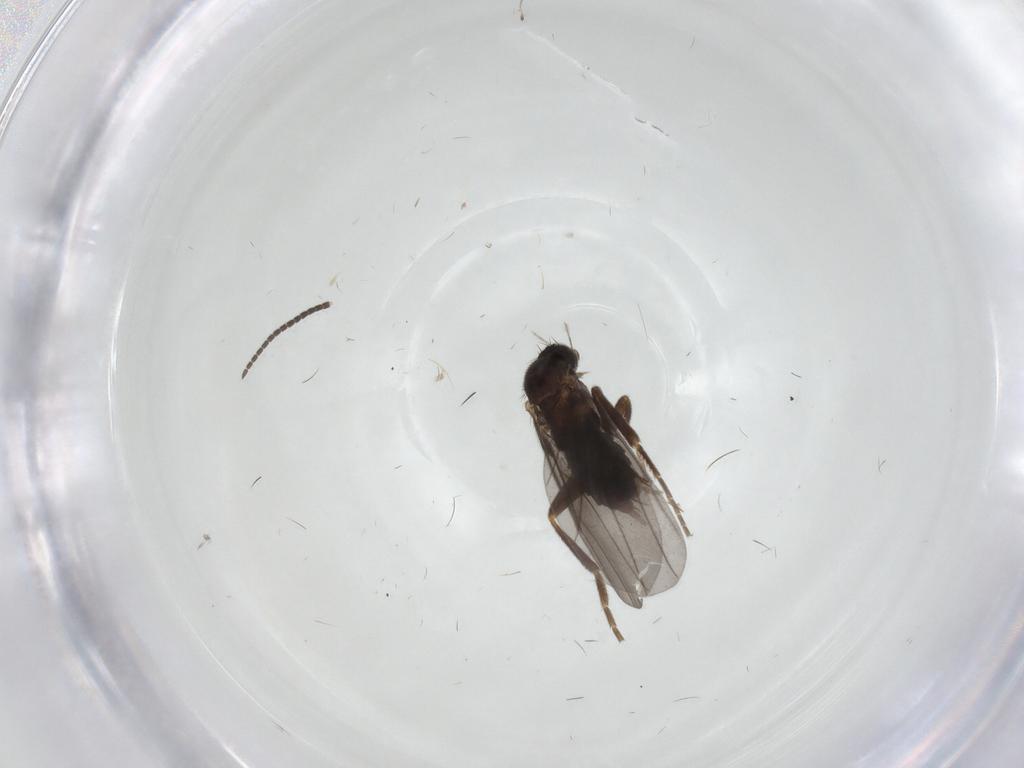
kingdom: Animalia
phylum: Arthropoda
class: Insecta
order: Diptera
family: Phoridae
